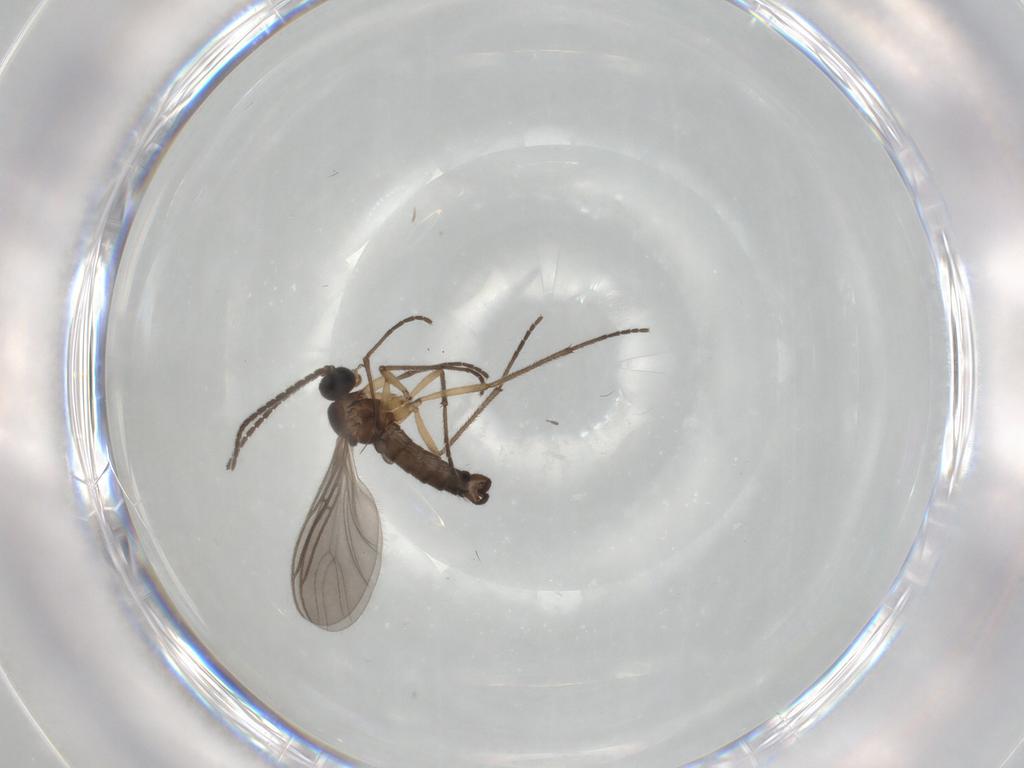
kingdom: Animalia
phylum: Arthropoda
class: Insecta
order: Diptera
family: Sciaridae
